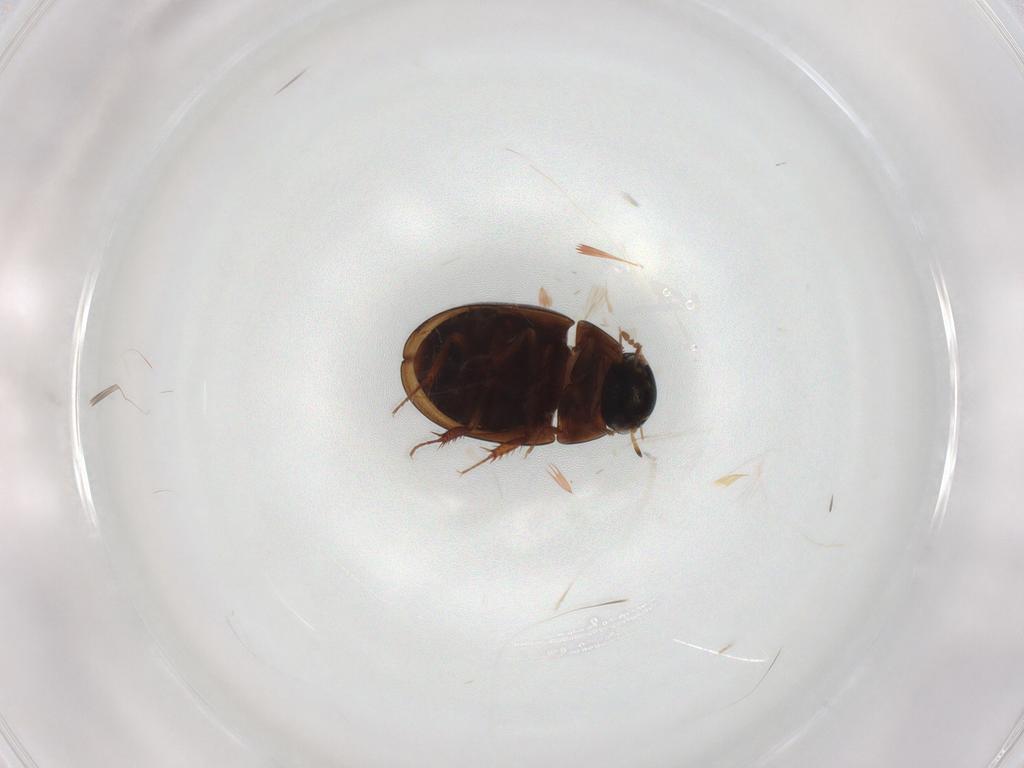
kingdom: Animalia
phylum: Arthropoda
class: Insecta
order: Coleoptera
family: Hydrophilidae
